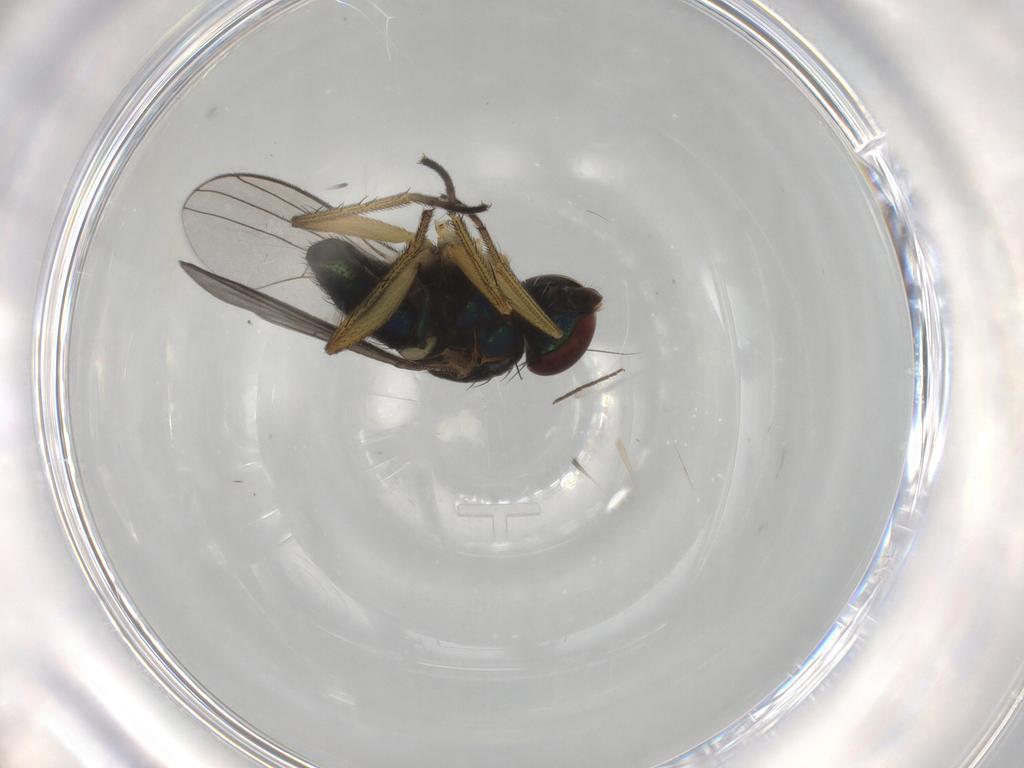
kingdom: Animalia
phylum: Arthropoda
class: Insecta
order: Diptera
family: Dolichopodidae
